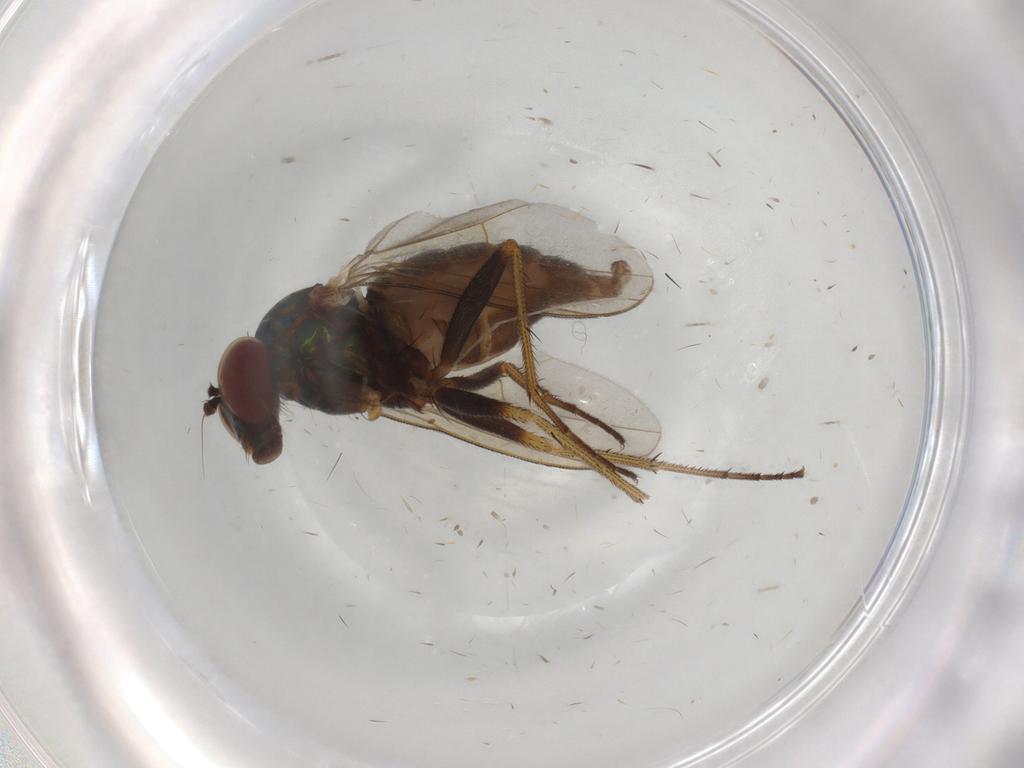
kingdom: Animalia
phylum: Arthropoda
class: Insecta
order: Diptera
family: Dolichopodidae
